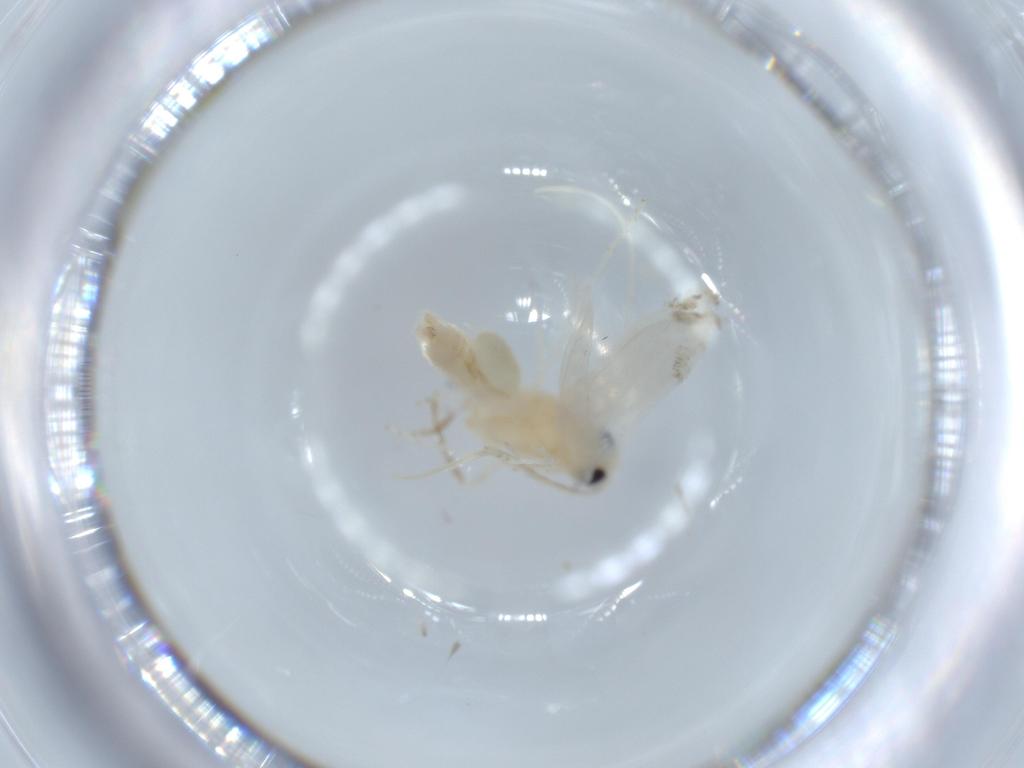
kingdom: Animalia
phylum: Arthropoda
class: Insecta
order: Lepidoptera
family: Lyonetiidae
